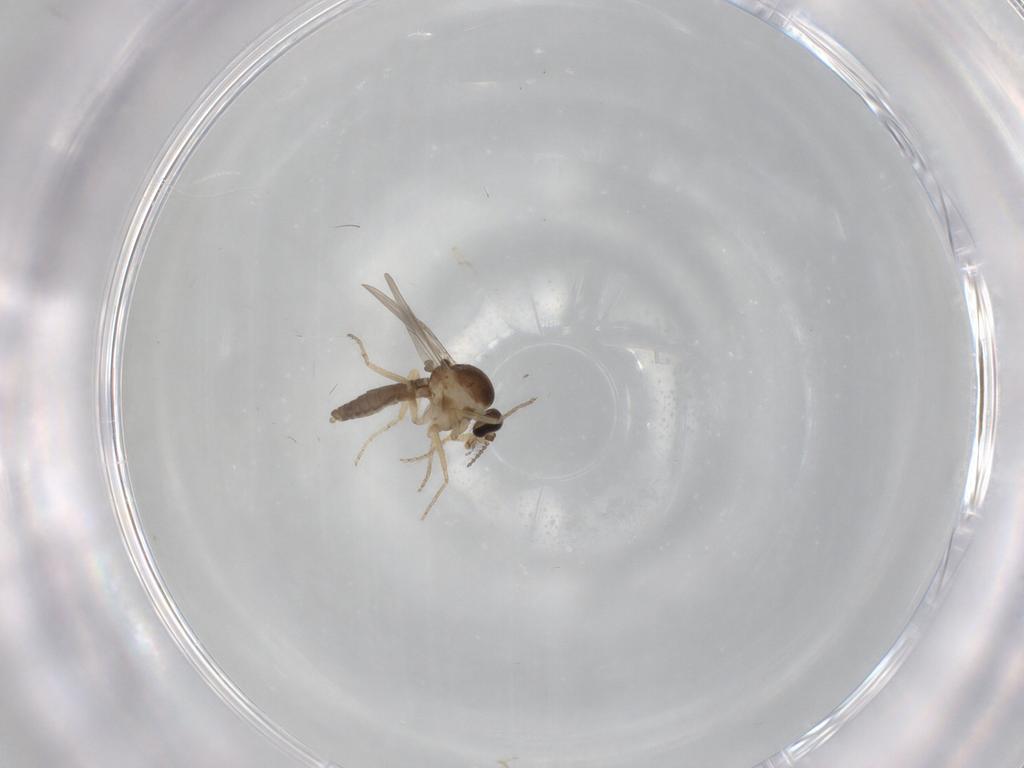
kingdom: Animalia
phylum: Arthropoda
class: Insecta
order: Diptera
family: Ceratopogonidae
